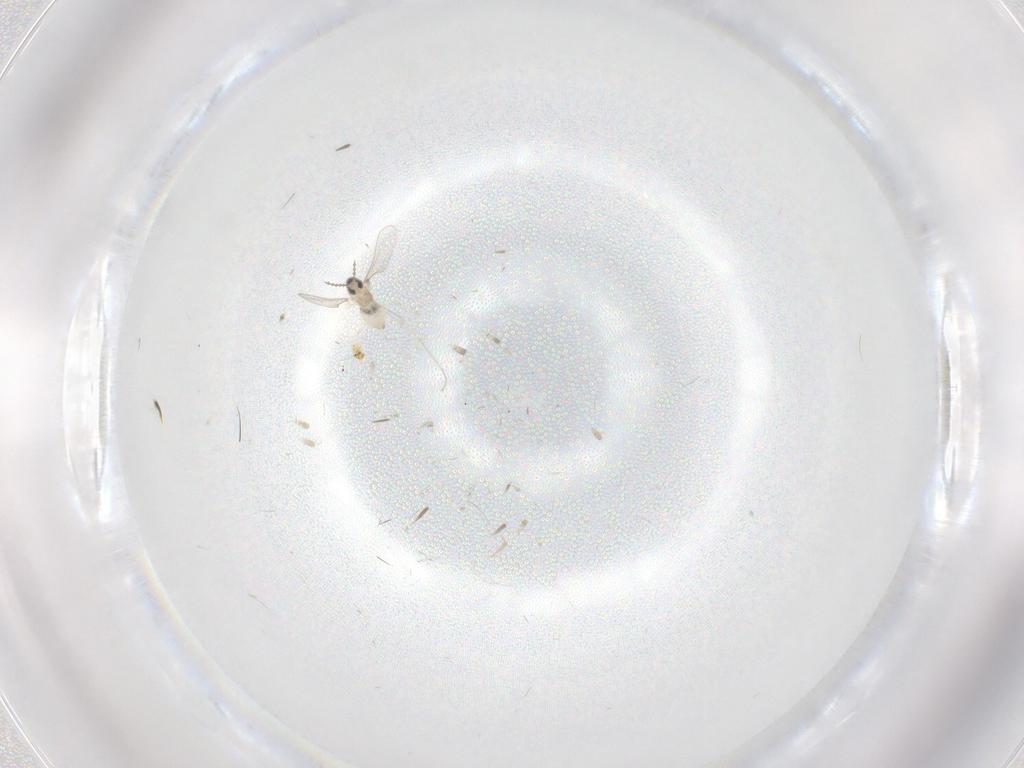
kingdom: Animalia
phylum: Arthropoda
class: Insecta
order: Diptera
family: Cecidomyiidae
